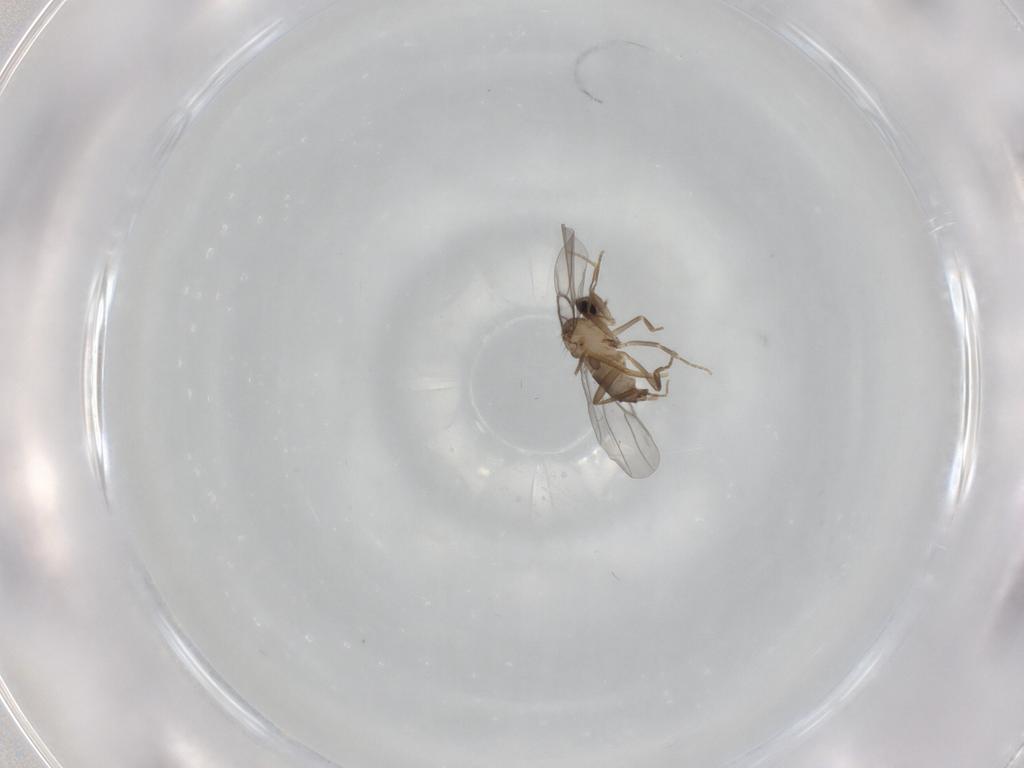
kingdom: Animalia
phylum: Arthropoda
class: Insecta
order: Diptera
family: Ceratopogonidae
